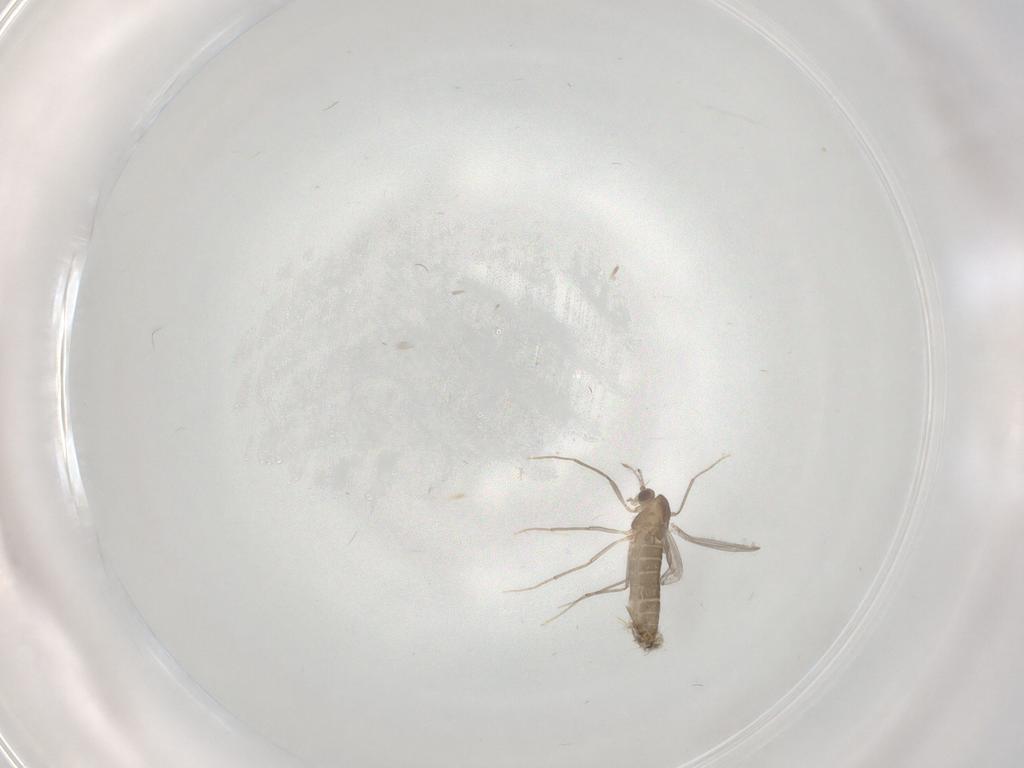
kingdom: Animalia
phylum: Arthropoda
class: Insecta
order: Diptera
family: Chironomidae
